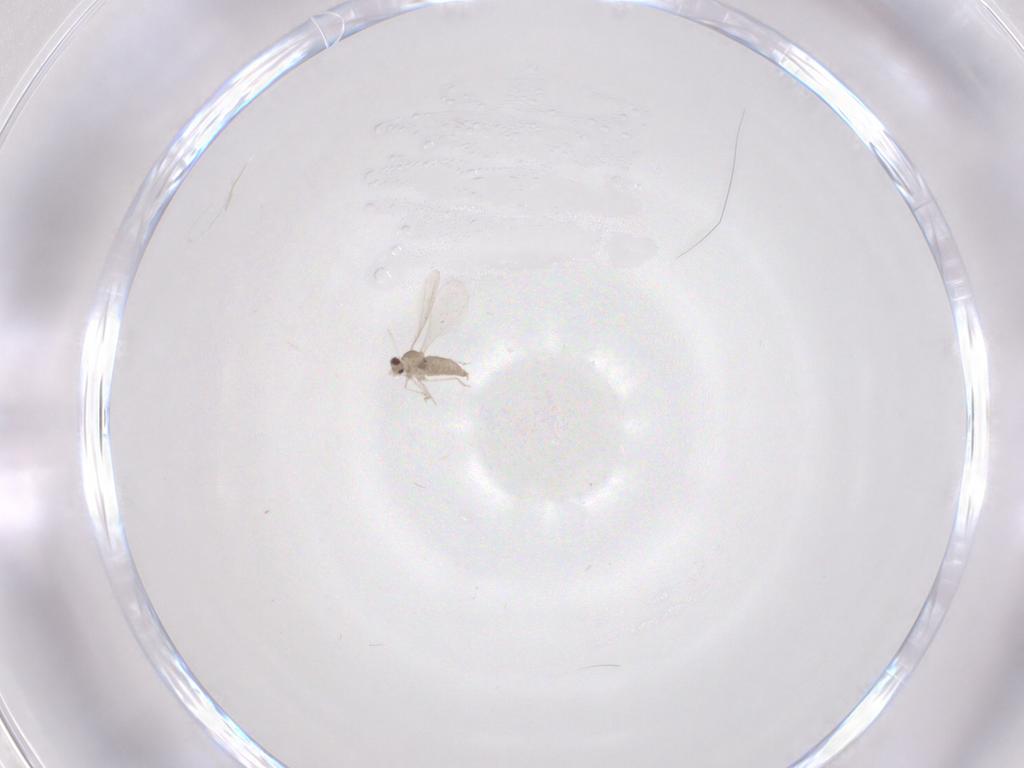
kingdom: Animalia
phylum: Arthropoda
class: Insecta
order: Diptera
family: Cecidomyiidae
